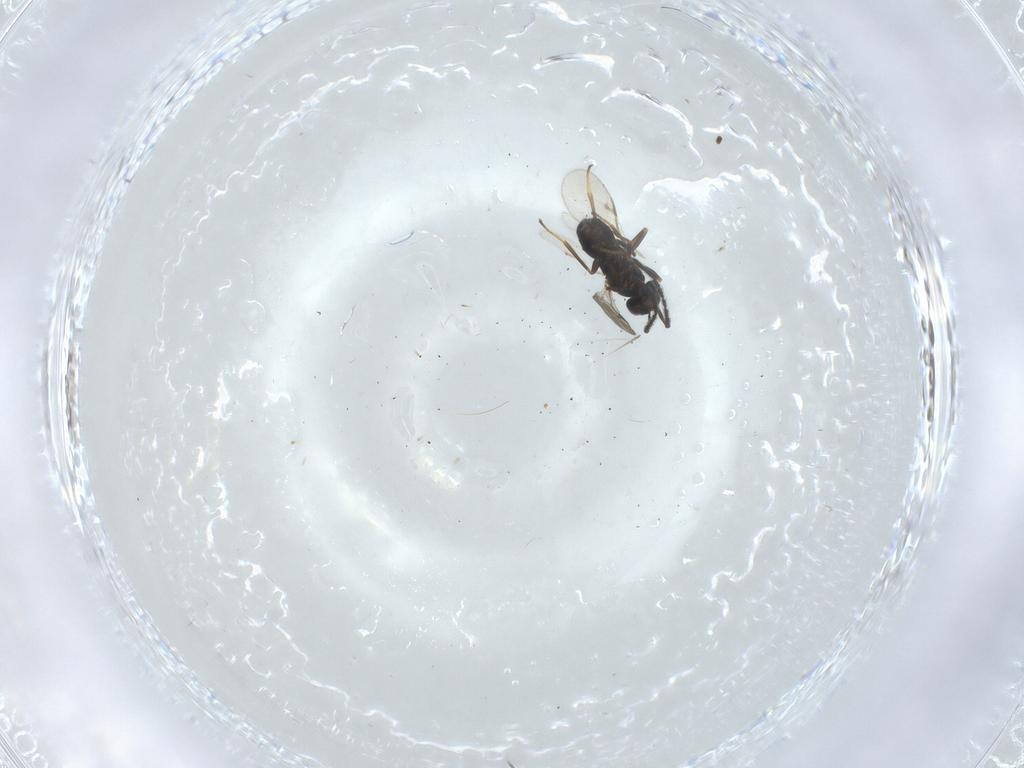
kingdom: Animalia
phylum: Arthropoda
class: Insecta
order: Hymenoptera
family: Encyrtidae
